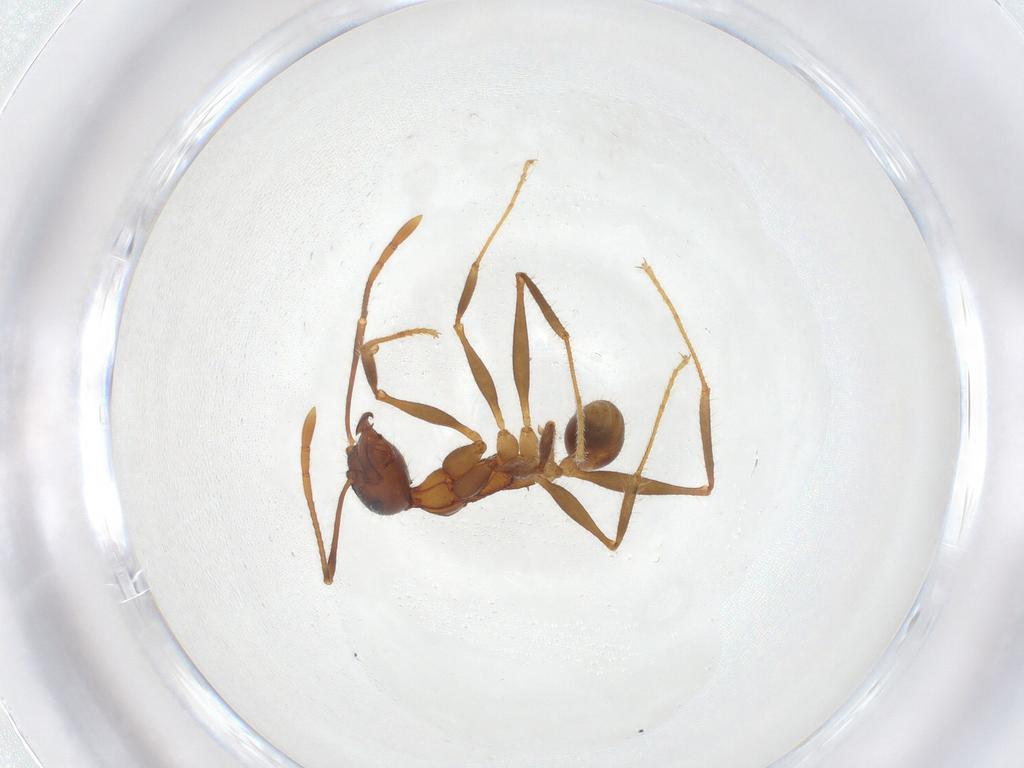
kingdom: Animalia
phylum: Arthropoda
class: Insecta
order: Hymenoptera
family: Formicidae
